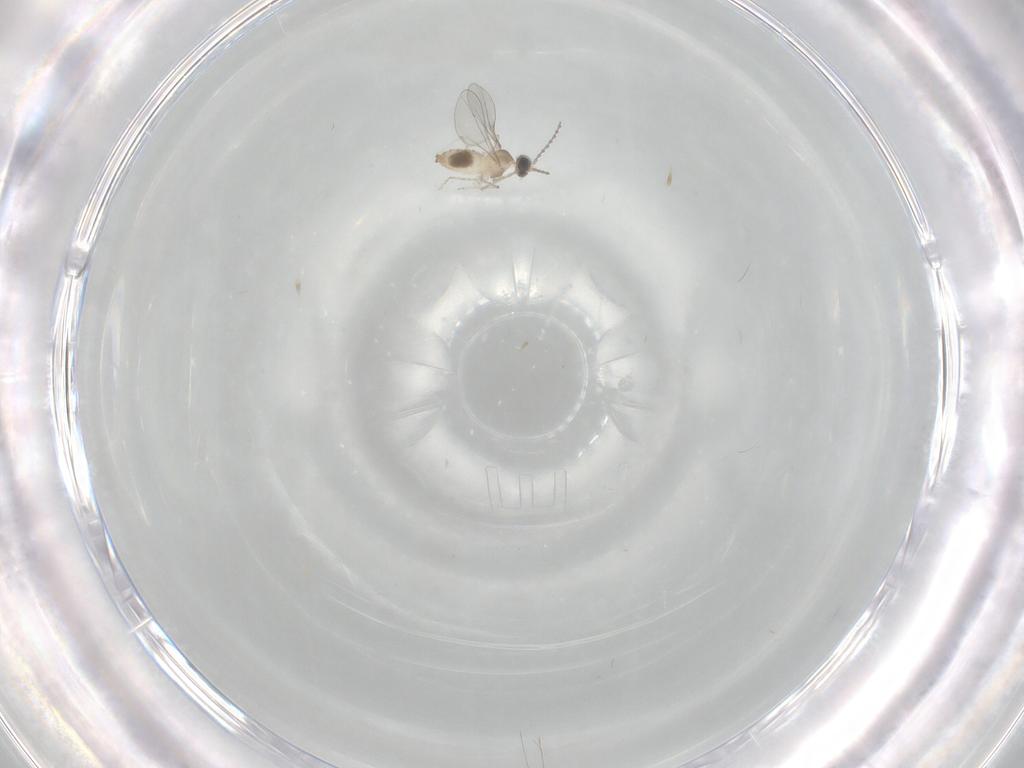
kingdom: Animalia
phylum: Arthropoda
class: Insecta
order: Diptera
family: Cecidomyiidae
